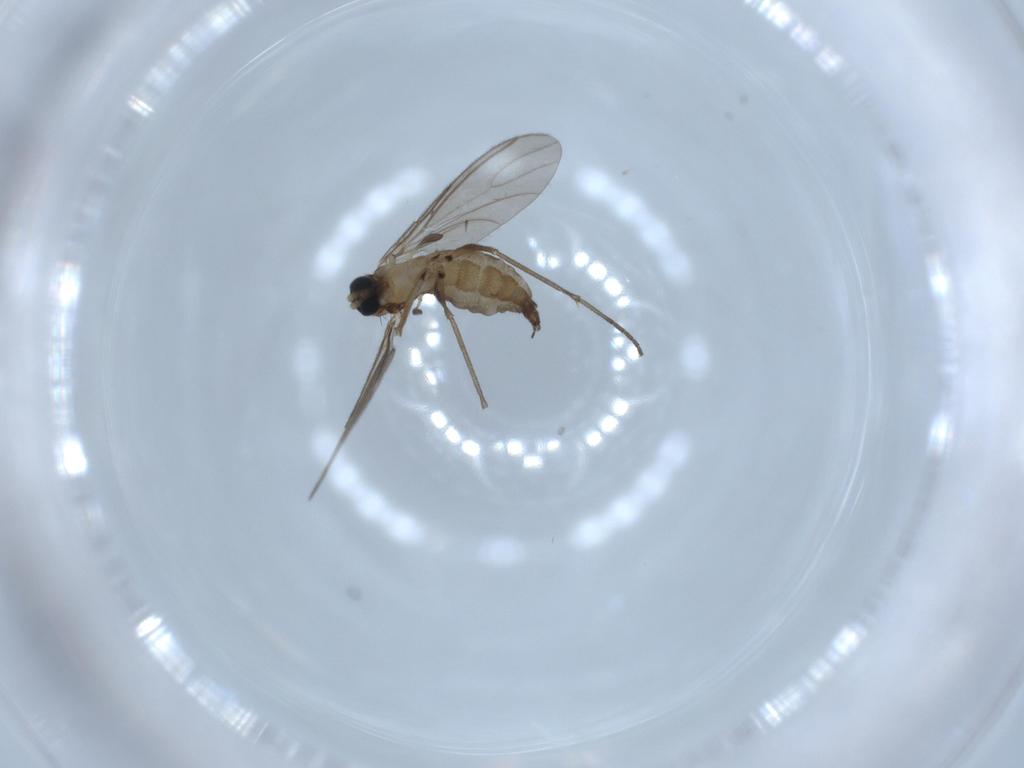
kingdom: Animalia
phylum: Arthropoda
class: Insecta
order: Diptera
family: Sciaridae
